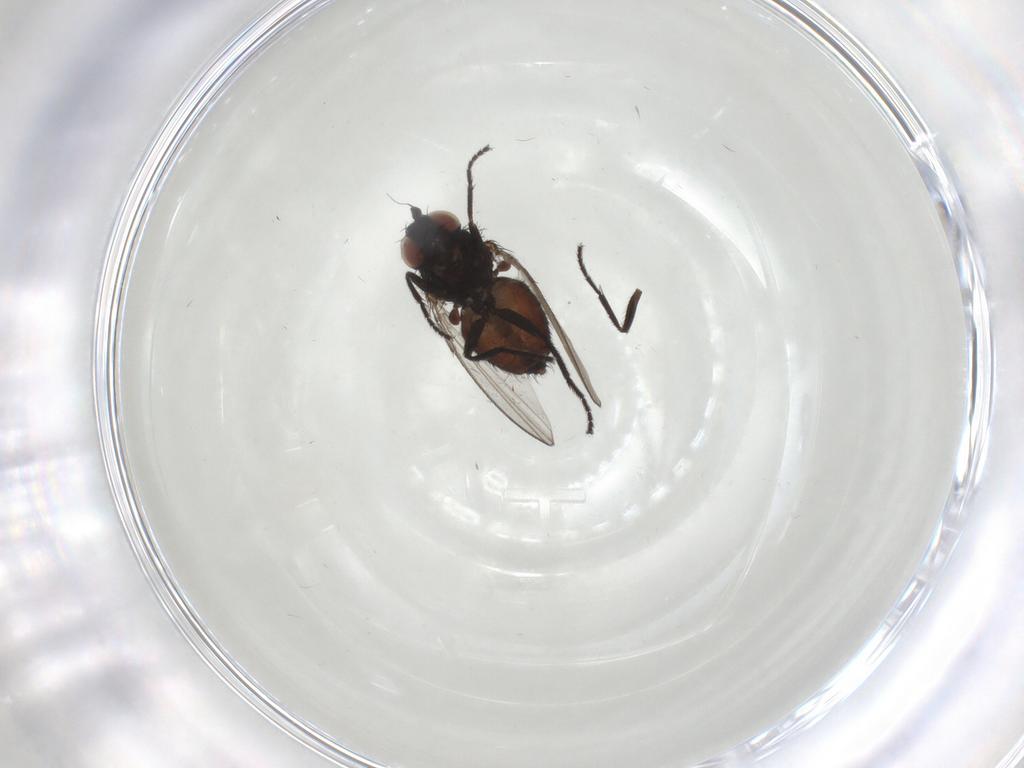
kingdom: Animalia
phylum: Arthropoda
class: Insecta
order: Diptera
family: Milichiidae
